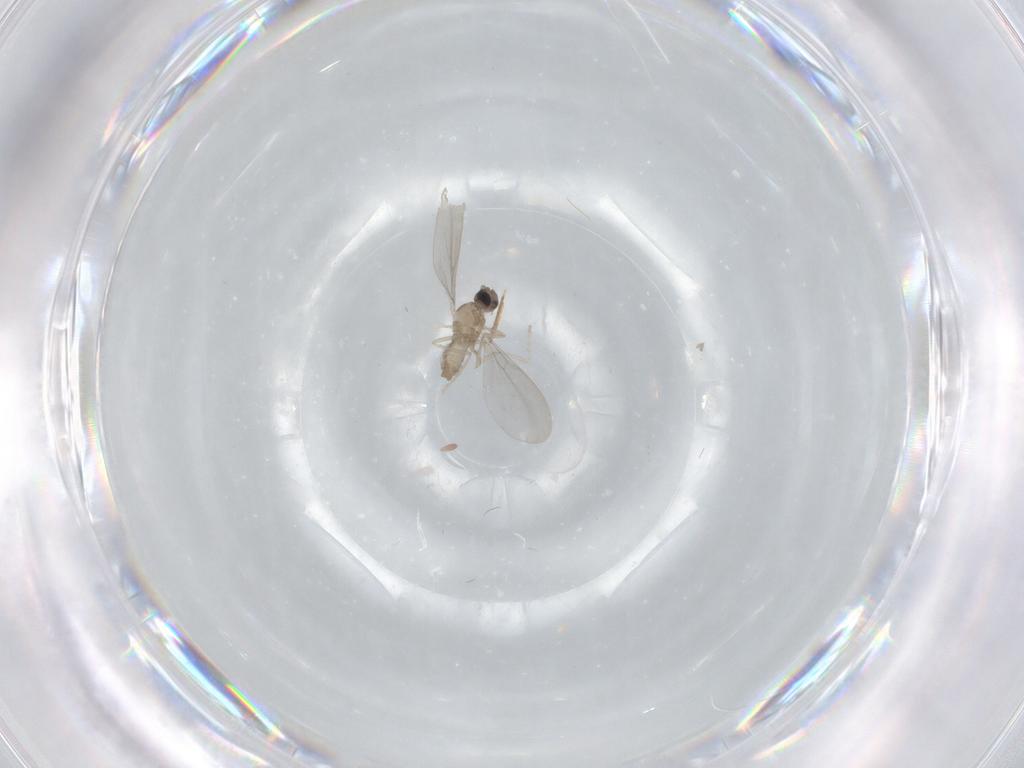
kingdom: Animalia
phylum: Arthropoda
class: Insecta
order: Diptera
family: Cecidomyiidae
